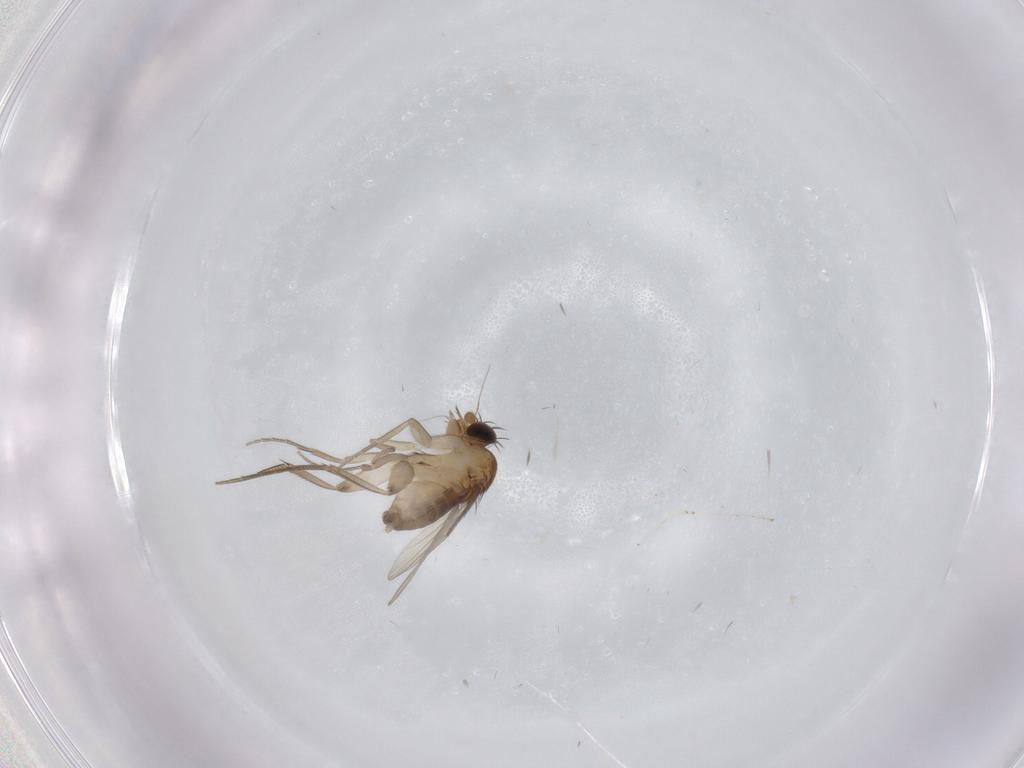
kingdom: Animalia
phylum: Arthropoda
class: Insecta
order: Diptera
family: Phoridae
